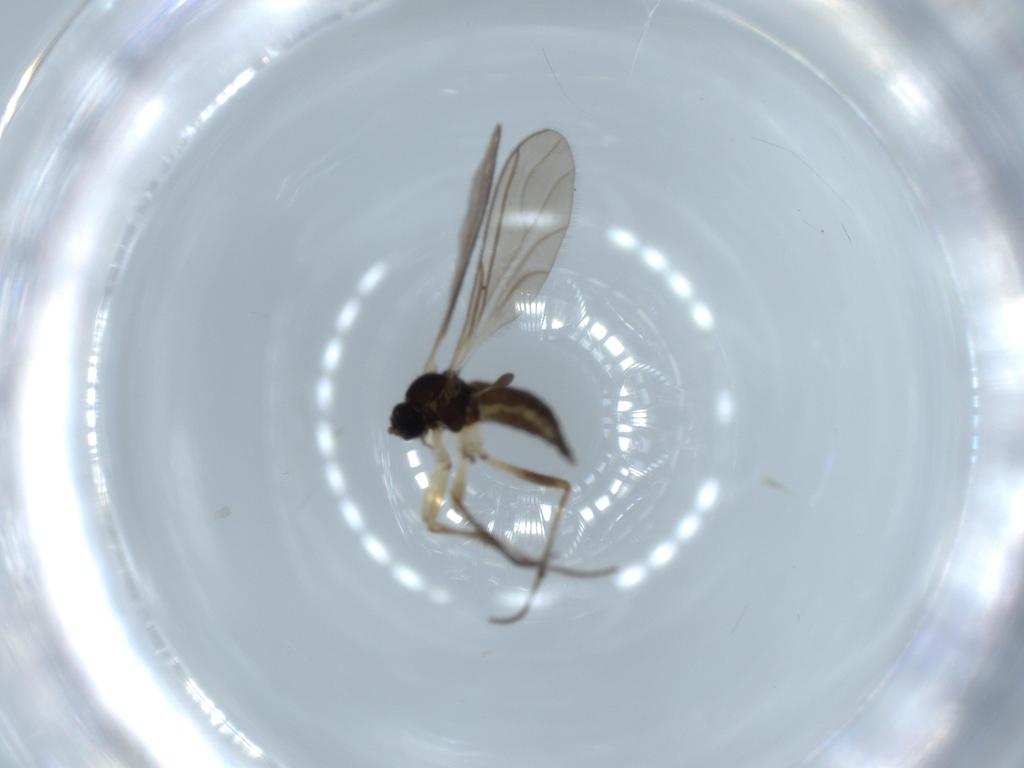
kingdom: Animalia
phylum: Arthropoda
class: Insecta
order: Diptera
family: Sciaridae
